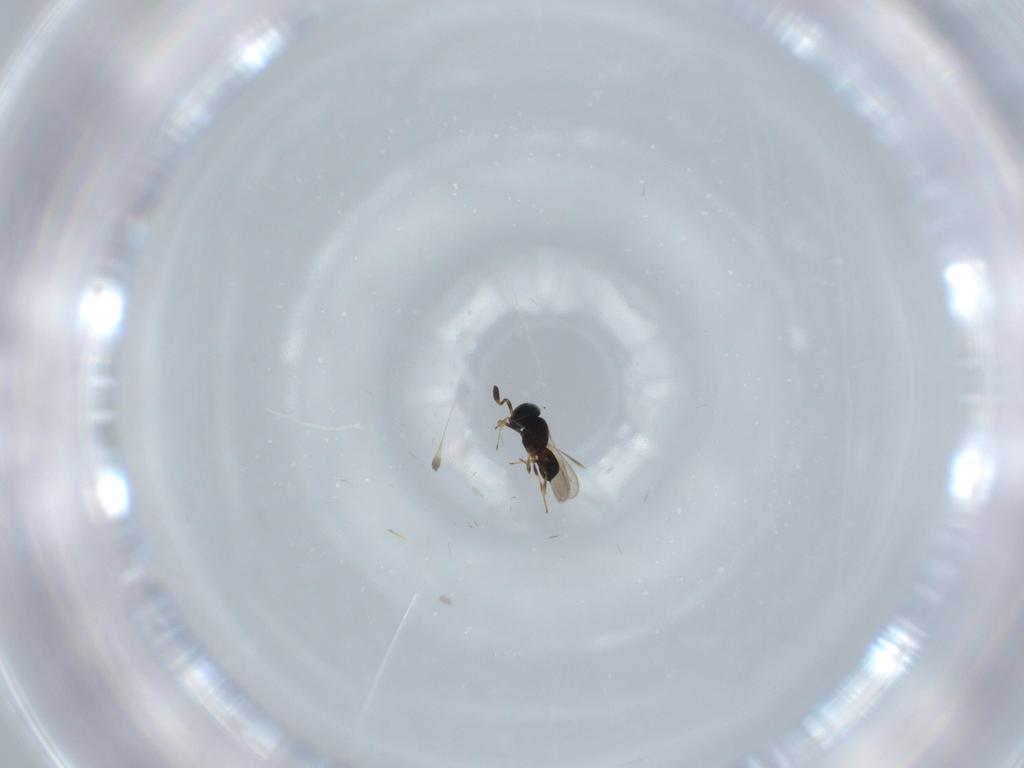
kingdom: Animalia
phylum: Arthropoda
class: Insecta
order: Hymenoptera
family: Scelionidae
